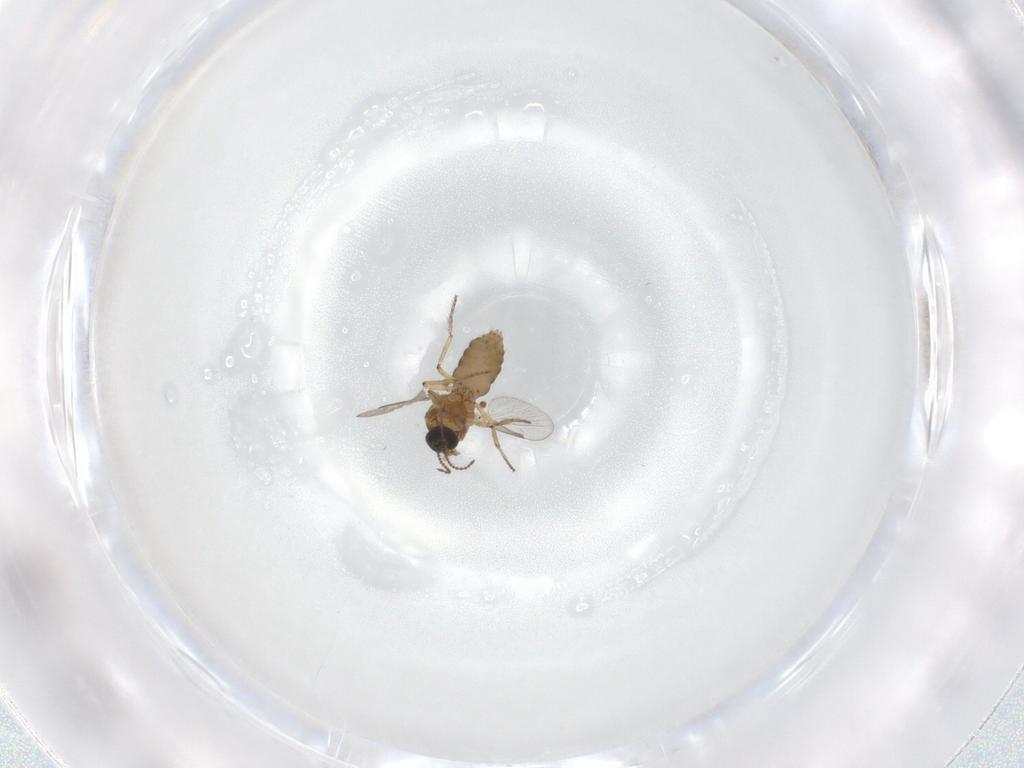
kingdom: Animalia
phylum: Arthropoda
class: Insecta
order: Diptera
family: Ceratopogonidae
